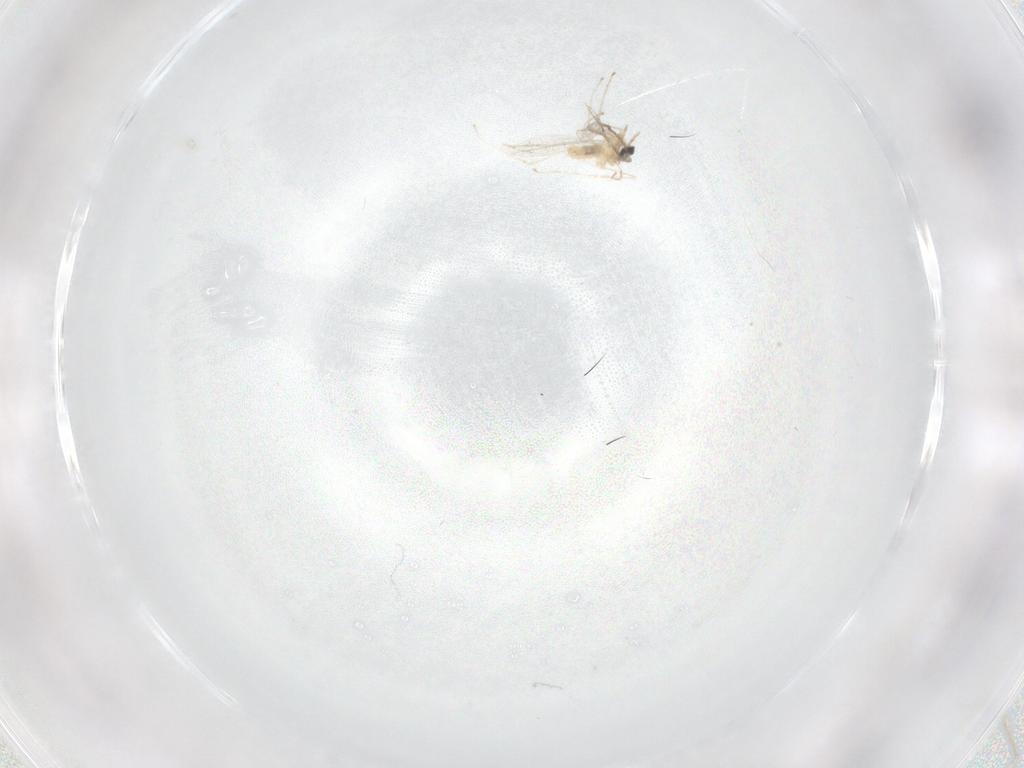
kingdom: Animalia
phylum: Arthropoda
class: Insecta
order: Diptera
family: Cecidomyiidae
